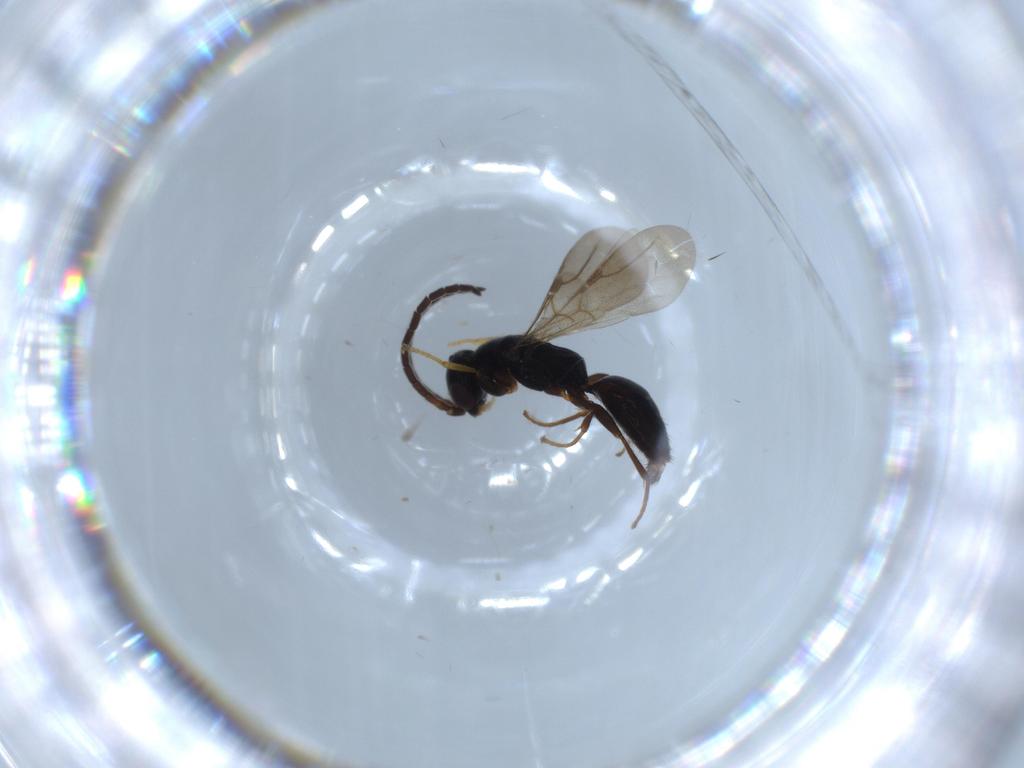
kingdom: Animalia
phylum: Arthropoda
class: Insecta
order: Hymenoptera
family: Bethylidae
